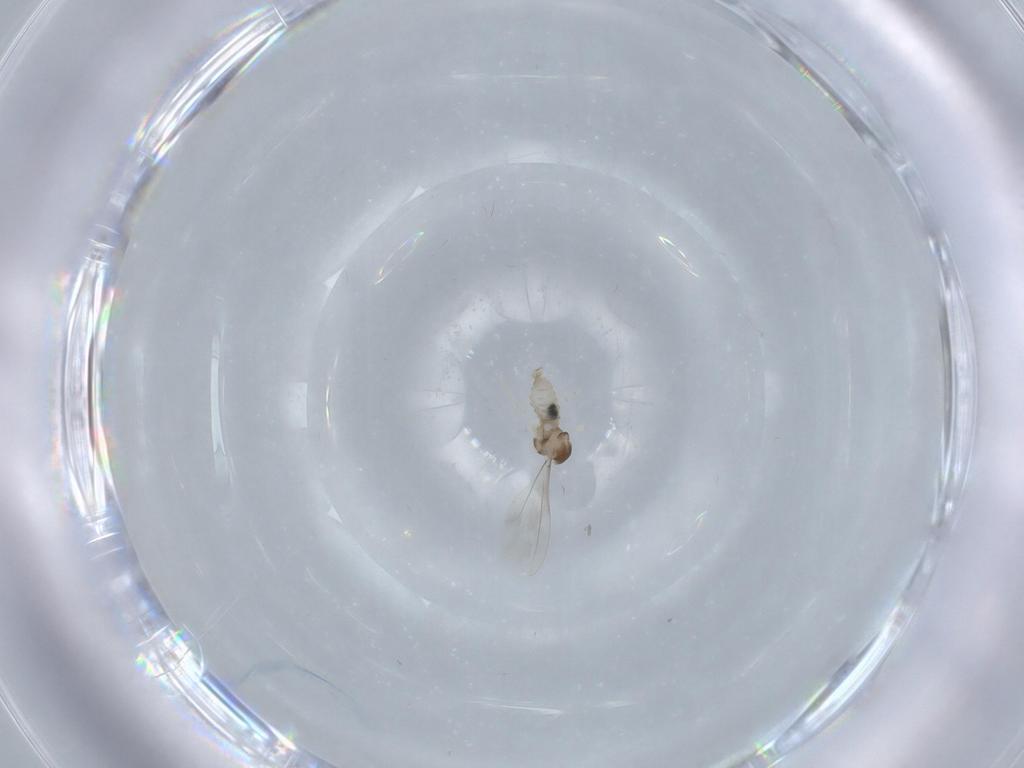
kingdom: Animalia
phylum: Arthropoda
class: Insecta
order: Diptera
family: Cecidomyiidae
